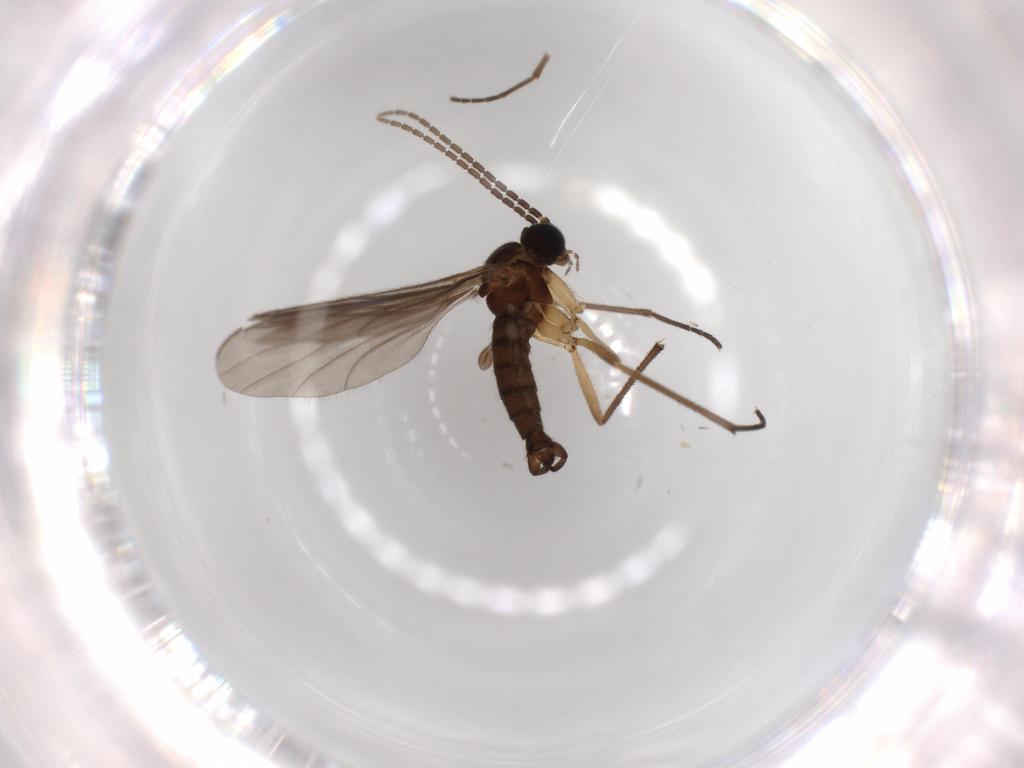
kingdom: Animalia
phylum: Arthropoda
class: Insecta
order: Diptera
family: Sciaridae
